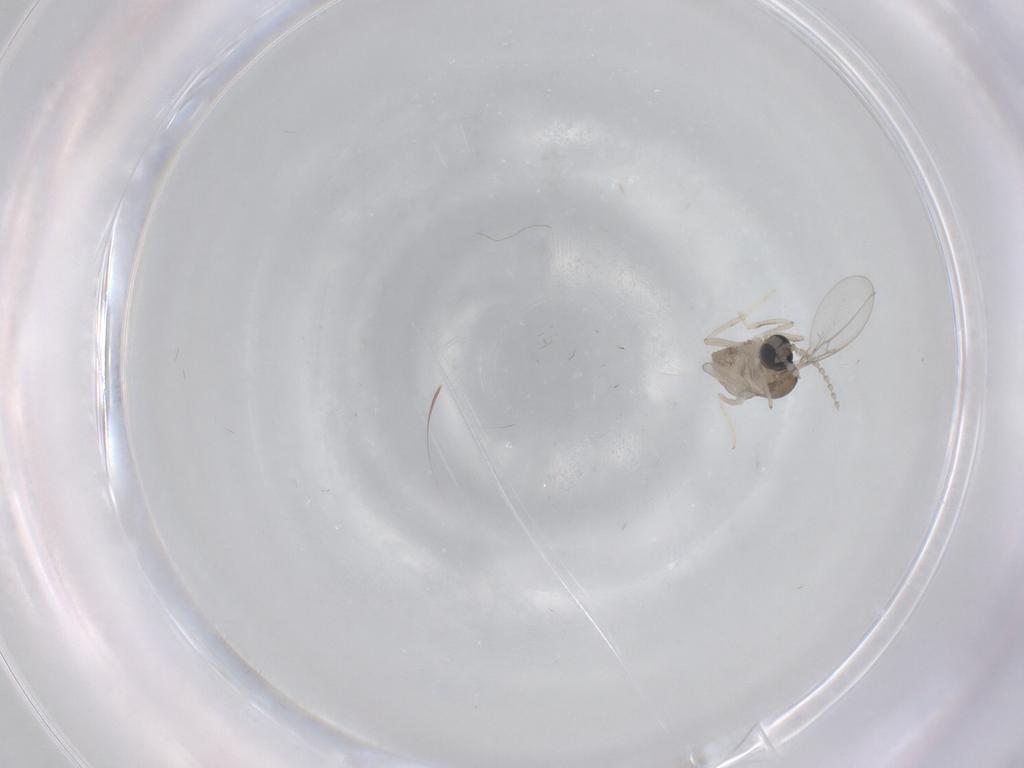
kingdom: Animalia
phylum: Arthropoda
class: Insecta
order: Diptera
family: Cecidomyiidae
